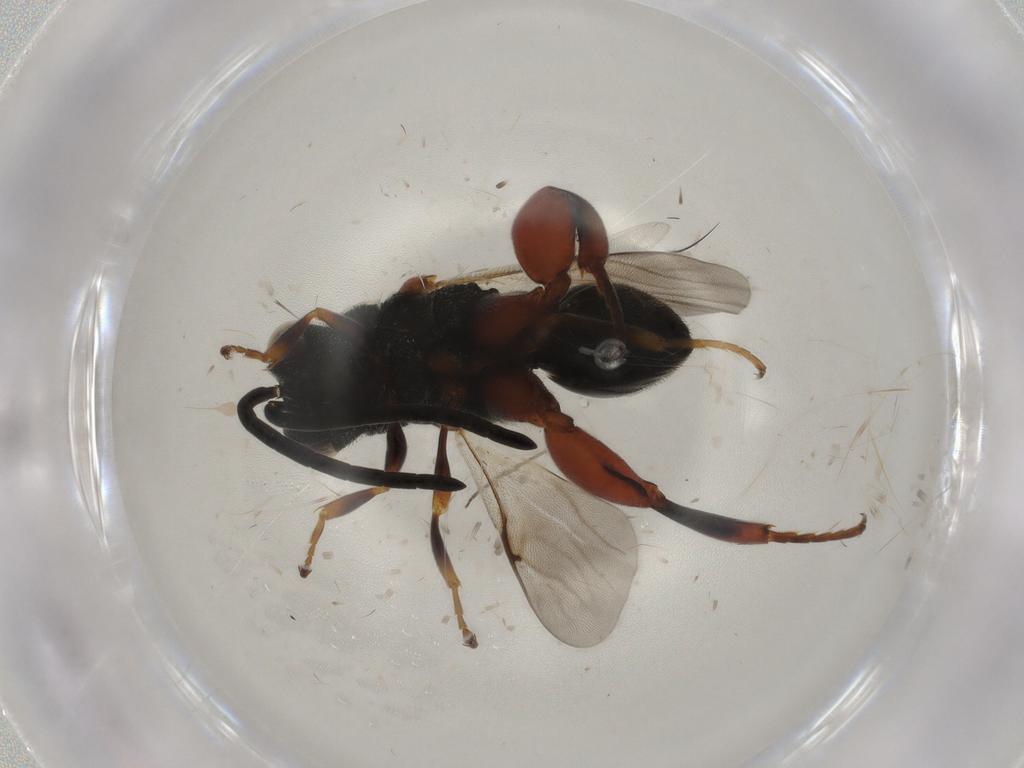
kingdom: Animalia
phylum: Arthropoda
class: Insecta
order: Hymenoptera
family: Chalcididae
